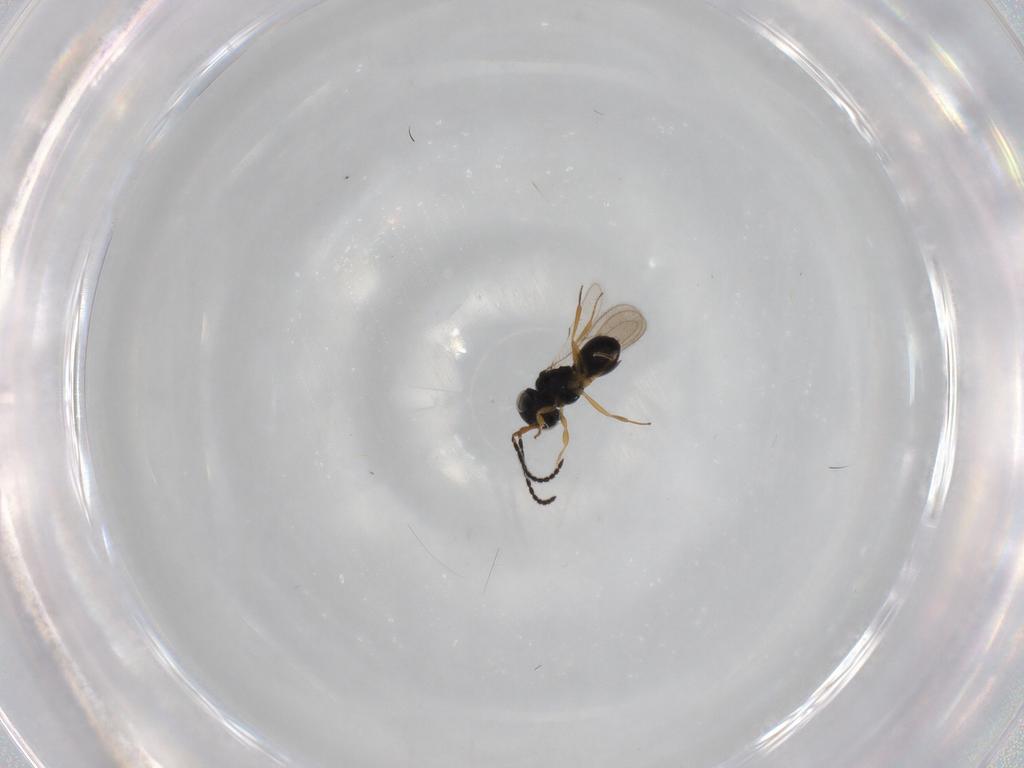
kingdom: Animalia
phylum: Arthropoda
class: Insecta
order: Hymenoptera
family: Scelionidae
